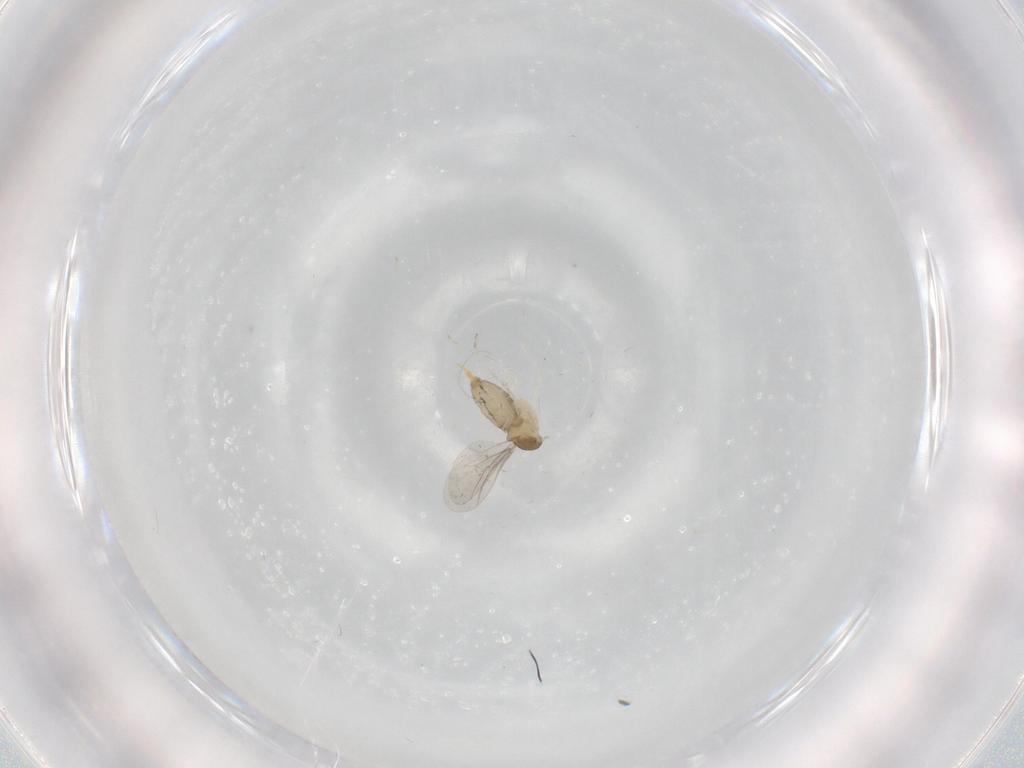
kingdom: Animalia
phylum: Arthropoda
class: Insecta
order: Diptera
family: Cecidomyiidae
